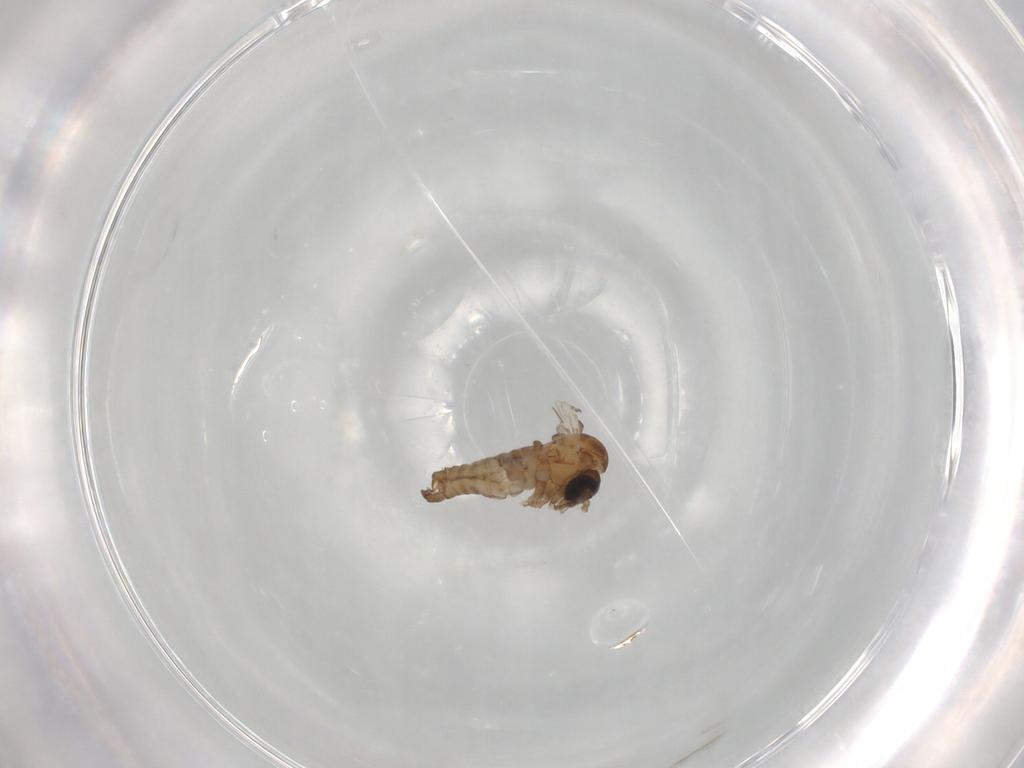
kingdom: Animalia
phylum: Arthropoda
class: Insecta
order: Diptera
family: Psychodidae
